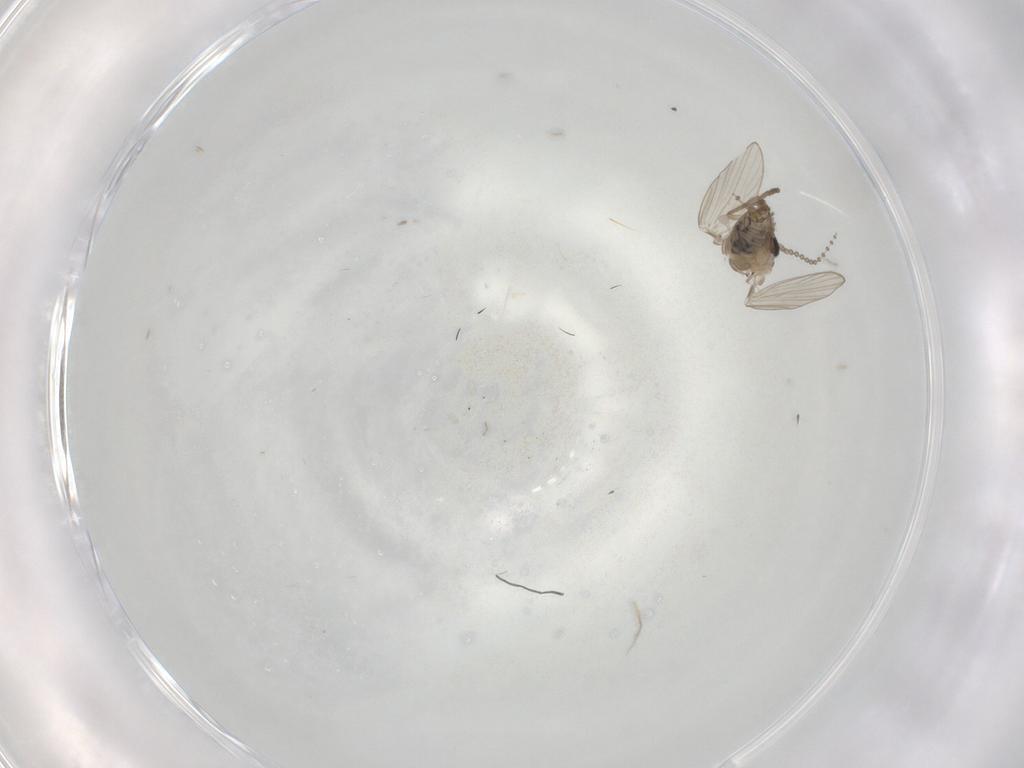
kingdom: Animalia
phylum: Arthropoda
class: Insecta
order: Diptera
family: Psychodidae
